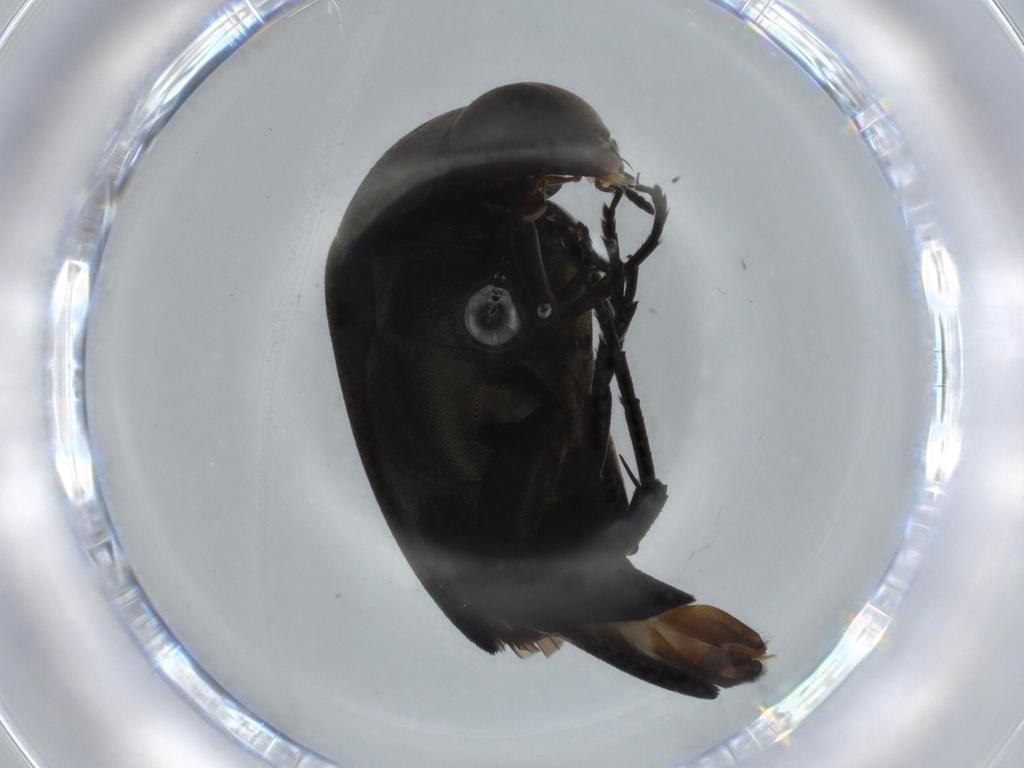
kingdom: Animalia
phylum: Arthropoda
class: Insecta
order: Coleoptera
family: Mordellidae
